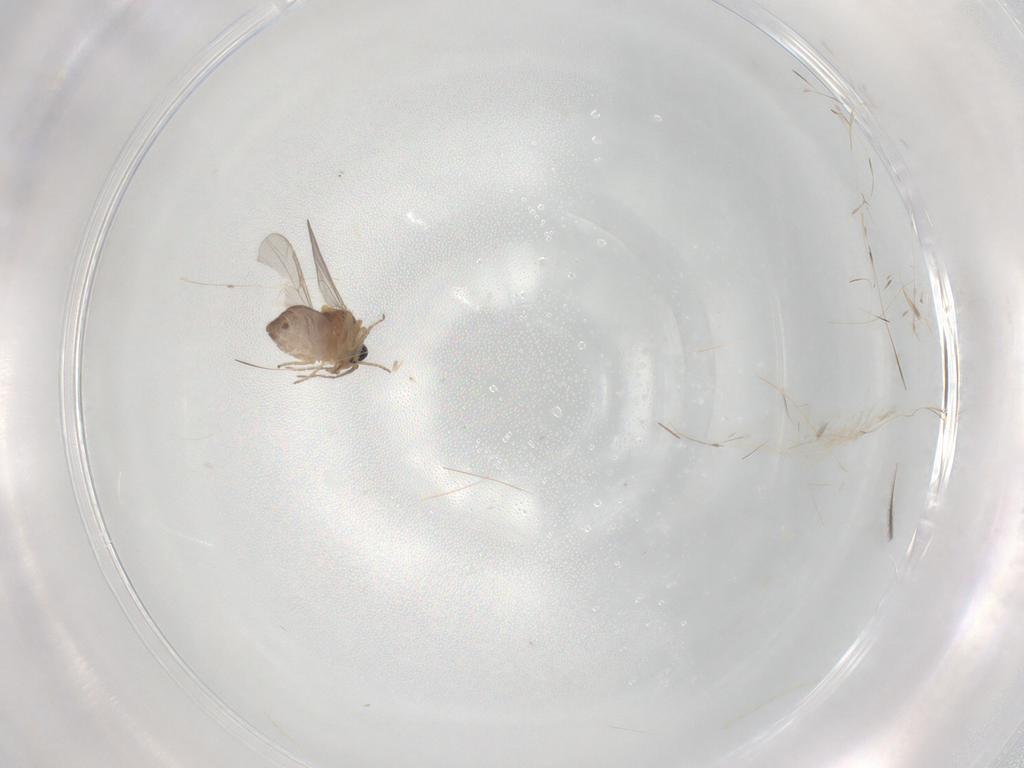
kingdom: Animalia
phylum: Arthropoda
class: Insecta
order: Diptera
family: Ceratopogonidae
